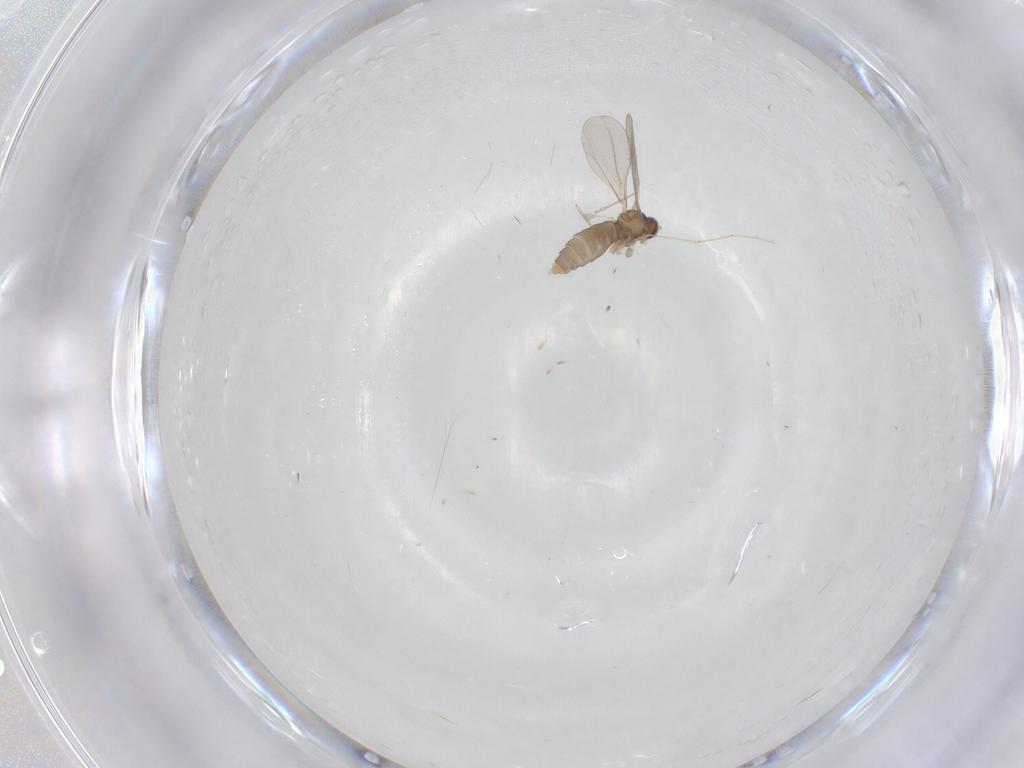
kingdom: Animalia
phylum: Arthropoda
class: Insecta
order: Diptera
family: Cecidomyiidae
